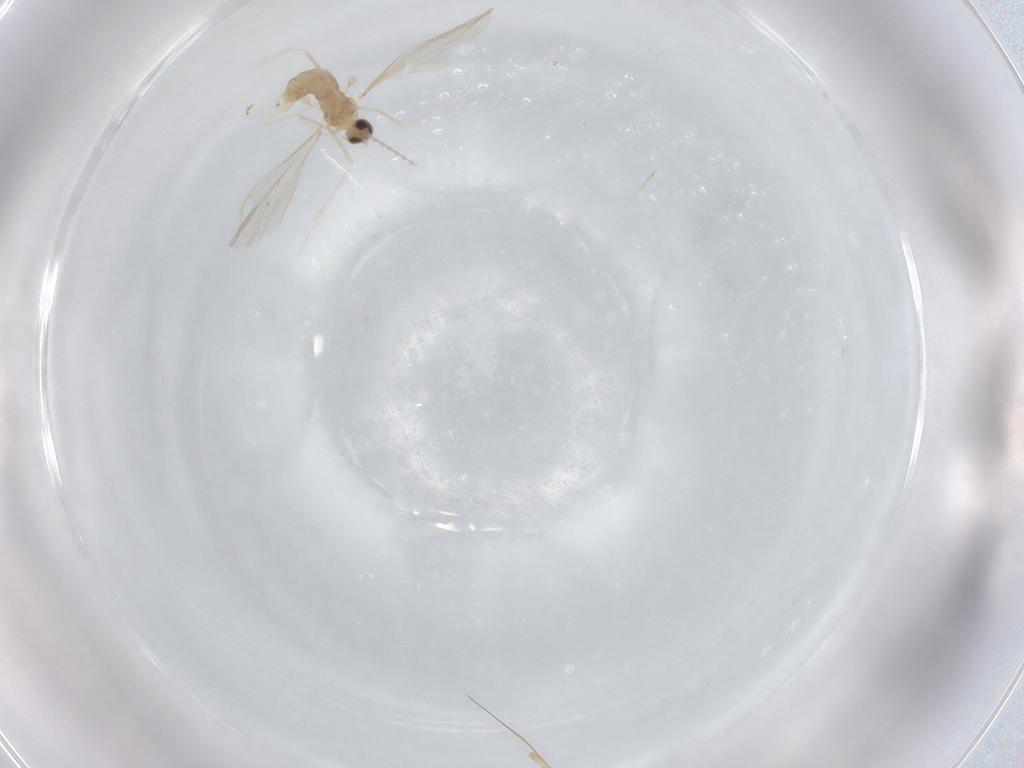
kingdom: Animalia
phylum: Arthropoda
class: Insecta
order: Diptera
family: Cecidomyiidae
